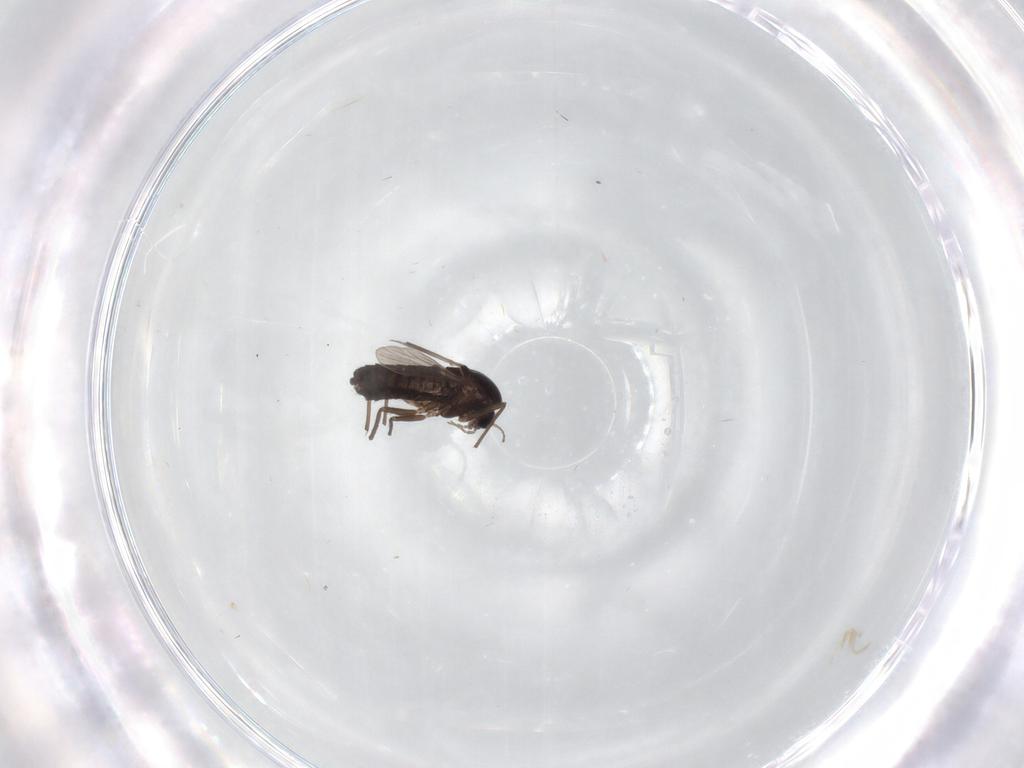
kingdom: Animalia
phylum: Arthropoda
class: Insecta
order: Diptera
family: Chironomidae
